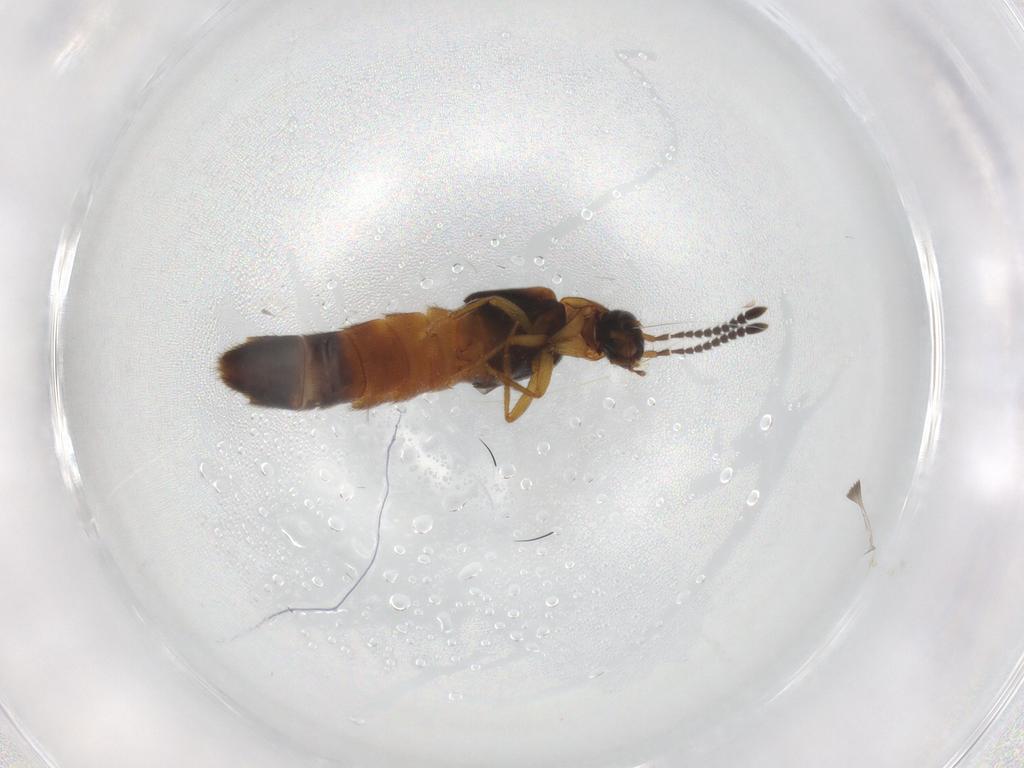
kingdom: Animalia
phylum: Arthropoda
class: Insecta
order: Coleoptera
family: Staphylinidae
